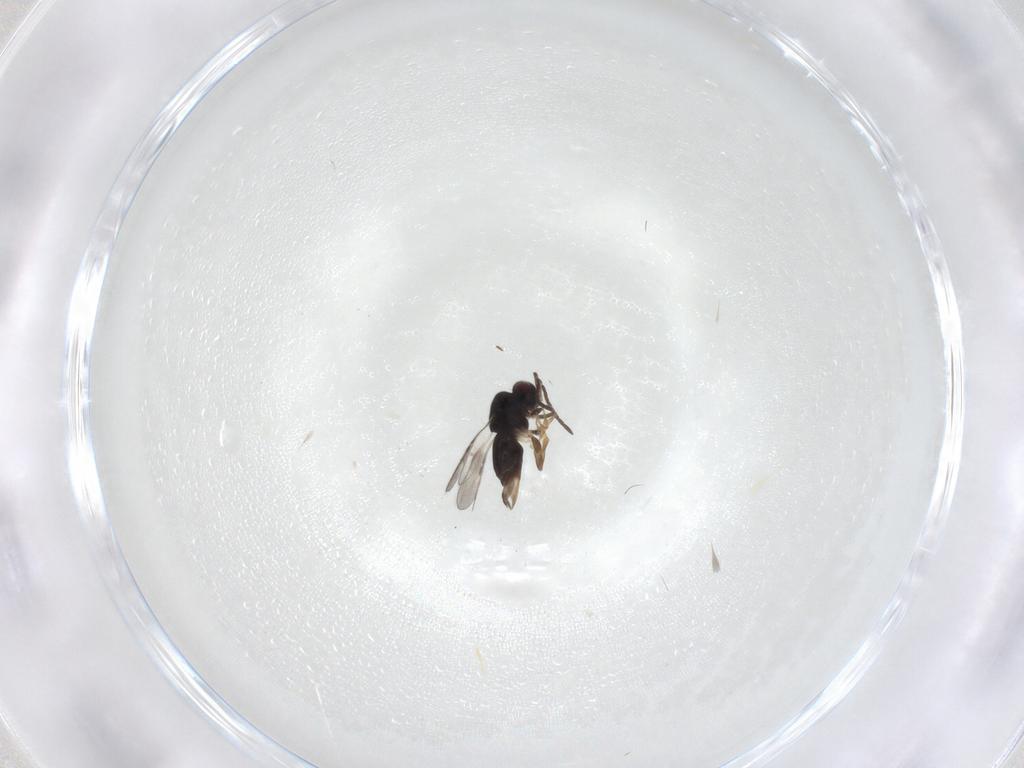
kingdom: Animalia
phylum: Arthropoda
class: Insecta
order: Hymenoptera
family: Ceraphronidae
